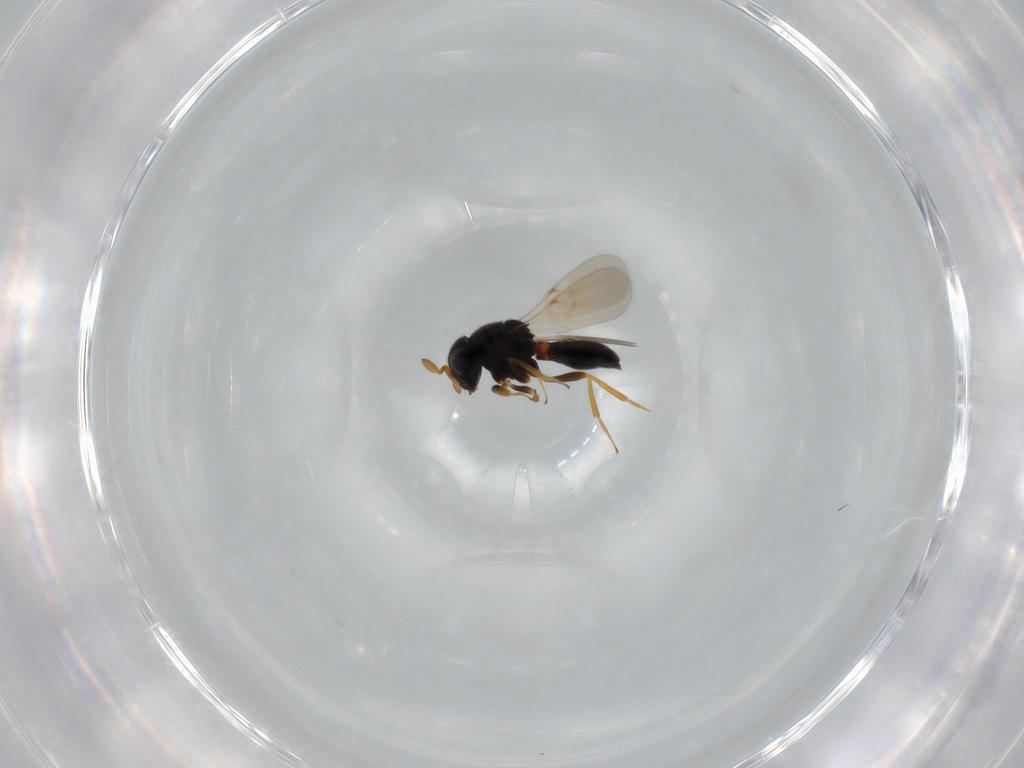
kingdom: Animalia
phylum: Arthropoda
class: Insecta
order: Hymenoptera
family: Scelionidae
